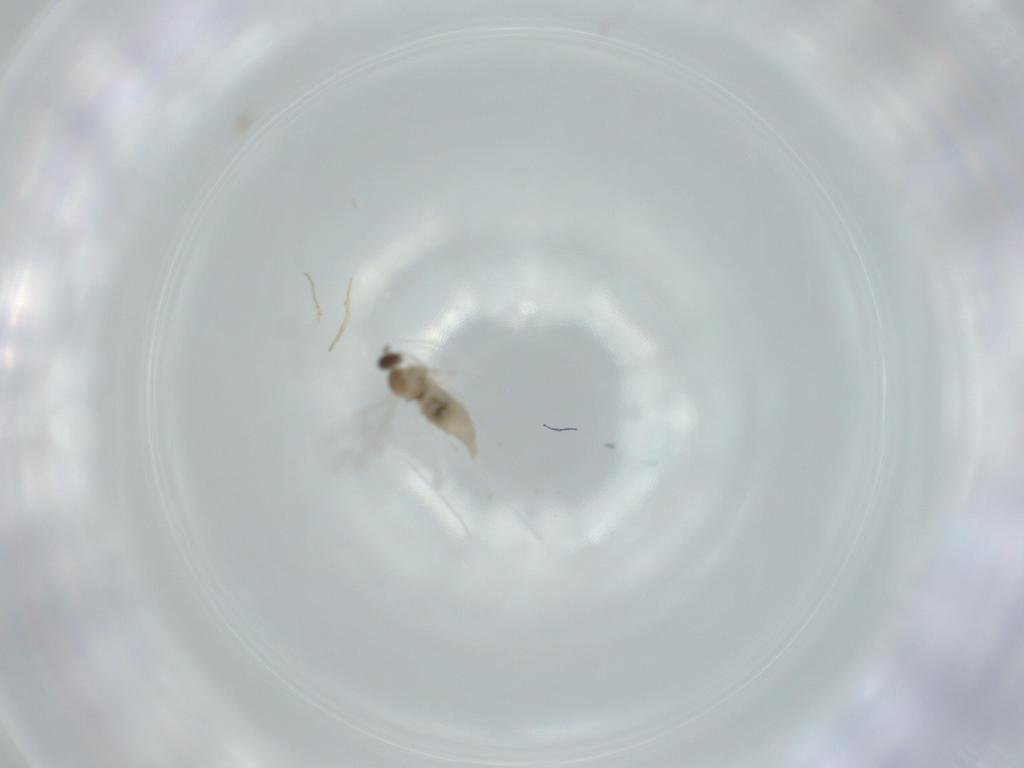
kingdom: Animalia
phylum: Arthropoda
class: Insecta
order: Diptera
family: Cecidomyiidae
